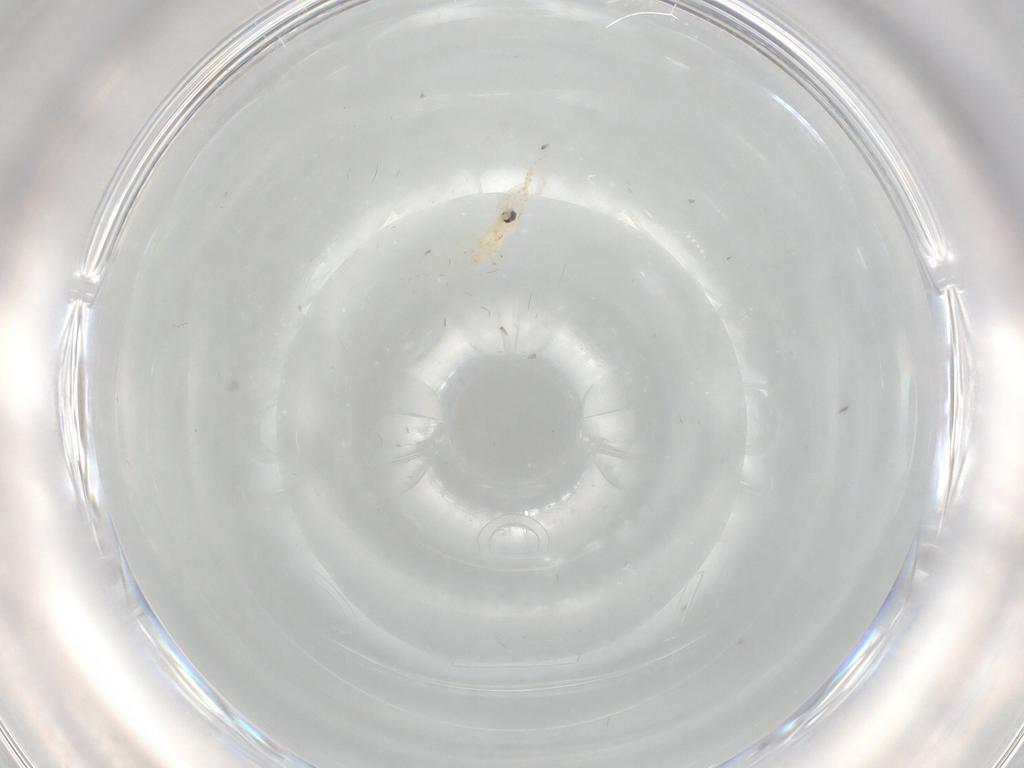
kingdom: Animalia
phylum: Arthropoda
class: Insecta
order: Diptera
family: Cecidomyiidae
